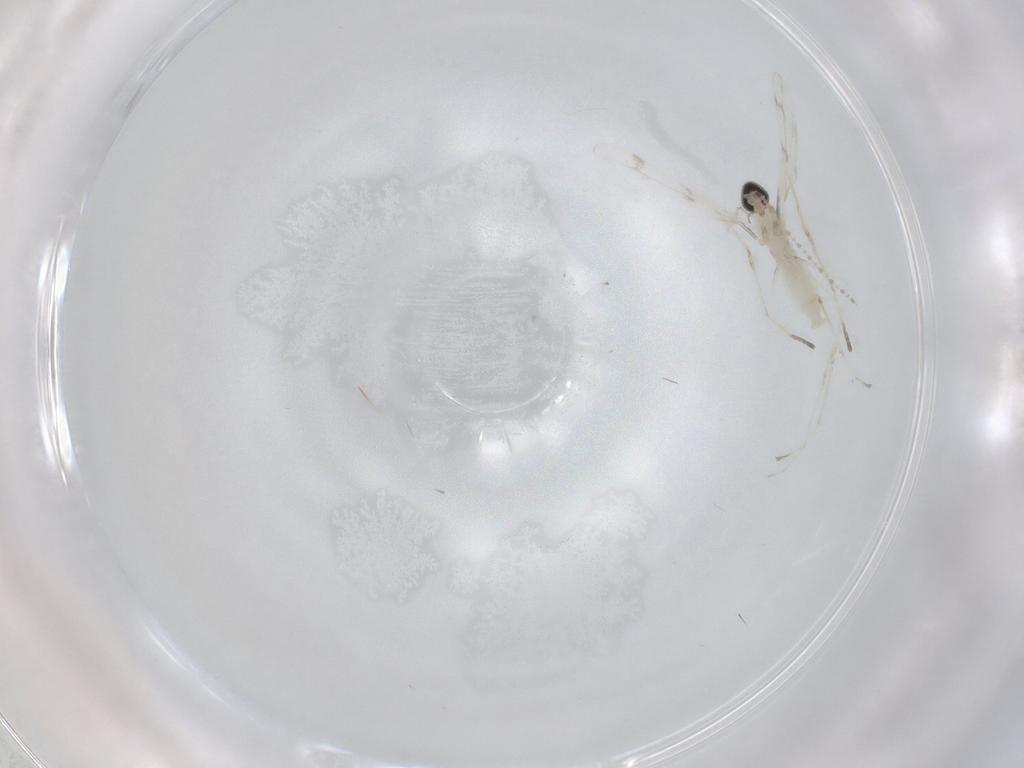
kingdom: Animalia
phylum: Arthropoda
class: Insecta
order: Diptera
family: Cecidomyiidae
